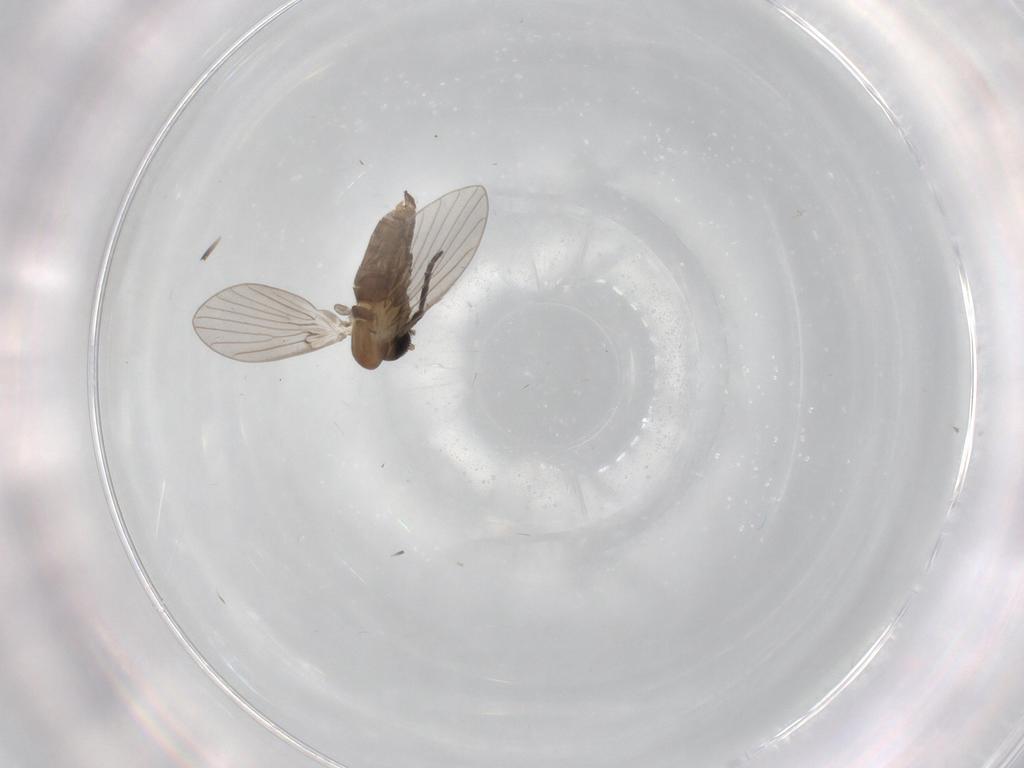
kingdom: Animalia
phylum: Arthropoda
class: Insecta
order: Diptera
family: Psychodidae
